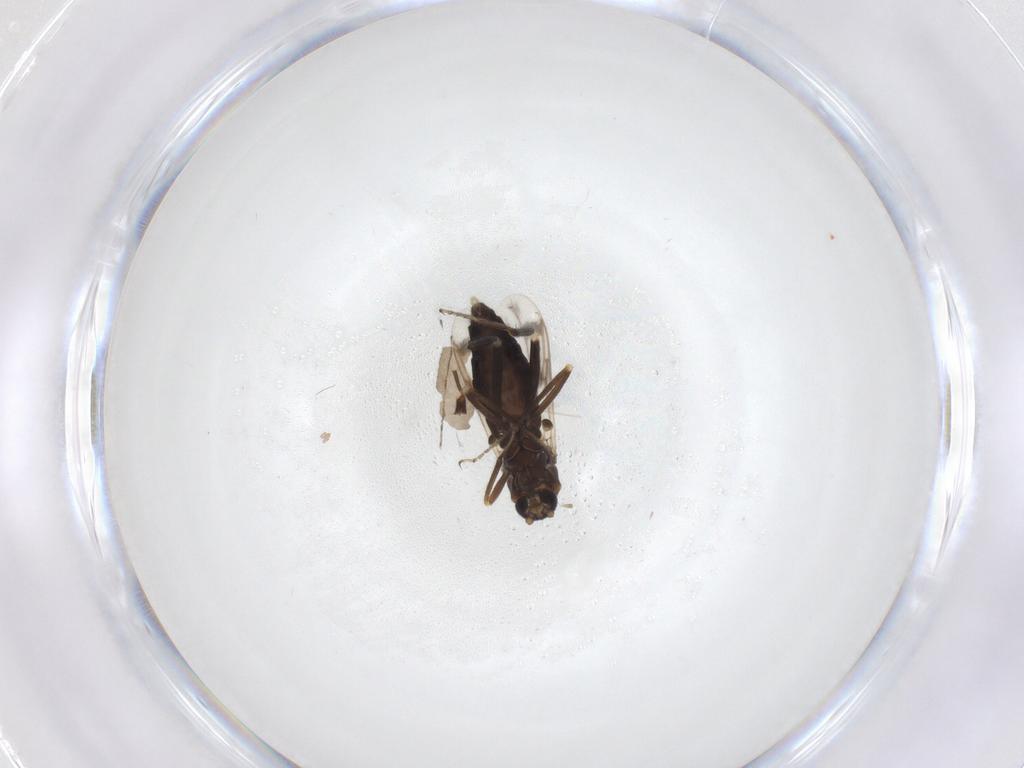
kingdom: Animalia
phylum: Arthropoda
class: Insecta
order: Diptera
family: Ceratopogonidae
